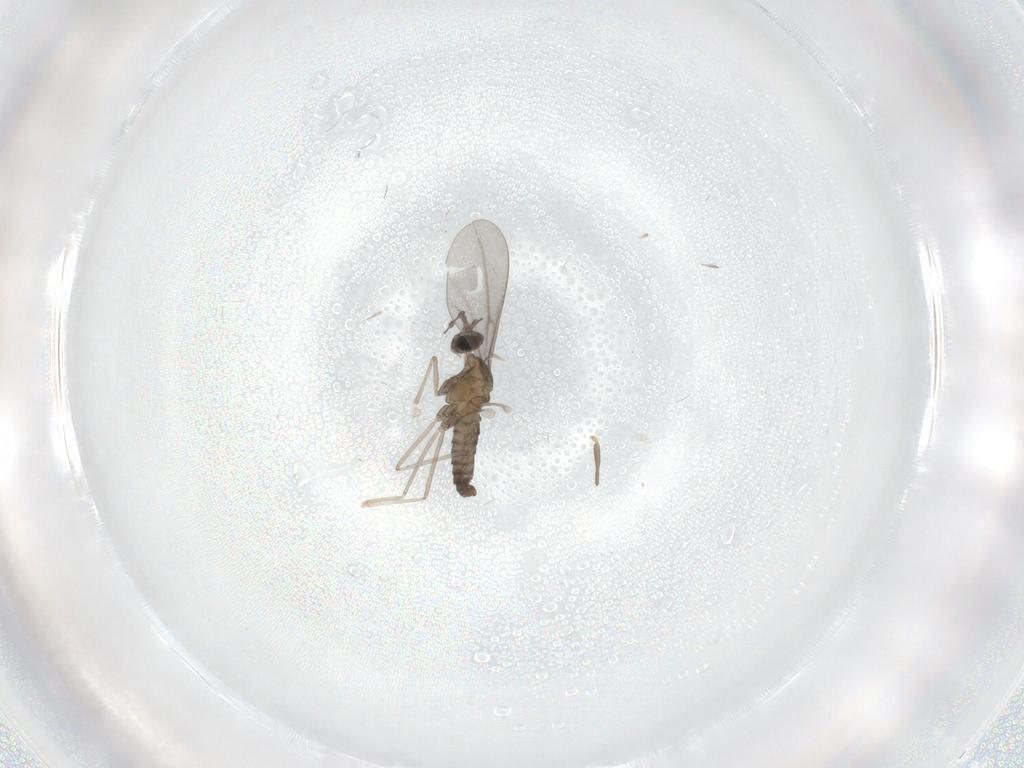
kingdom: Animalia
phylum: Arthropoda
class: Insecta
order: Diptera
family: Cecidomyiidae
